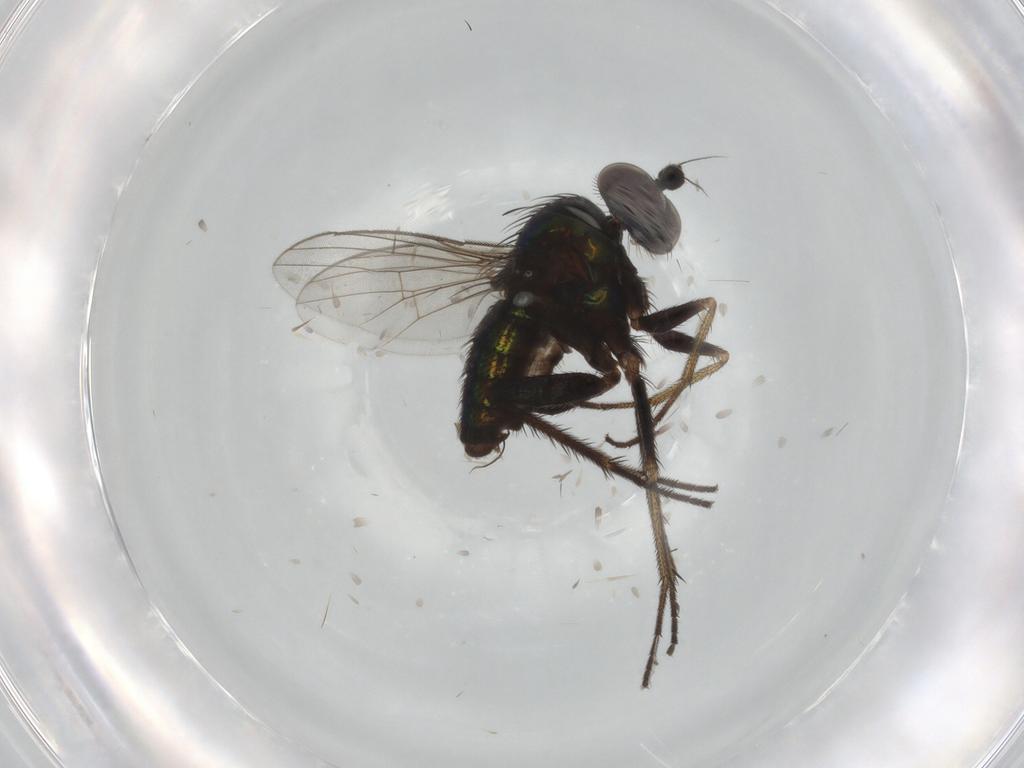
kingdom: Animalia
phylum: Arthropoda
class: Insecta
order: Diptera
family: Dolichopodidae
